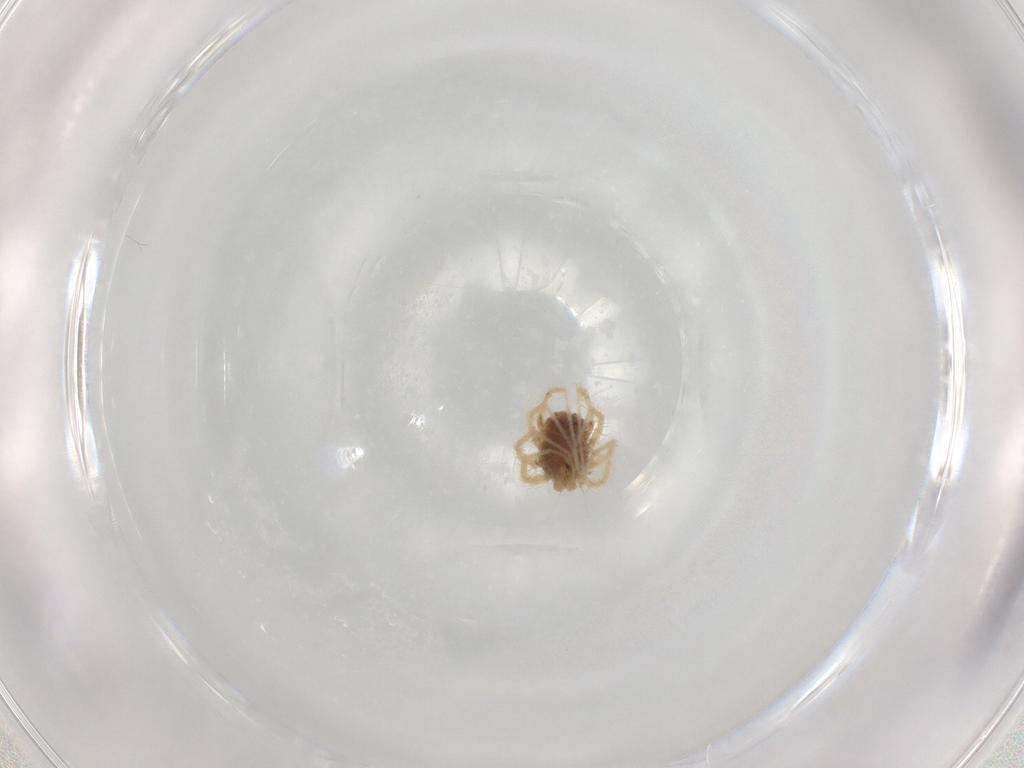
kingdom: Animalia
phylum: Arthropoda
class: Arachnida
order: Trombidiformes
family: Anystidae
